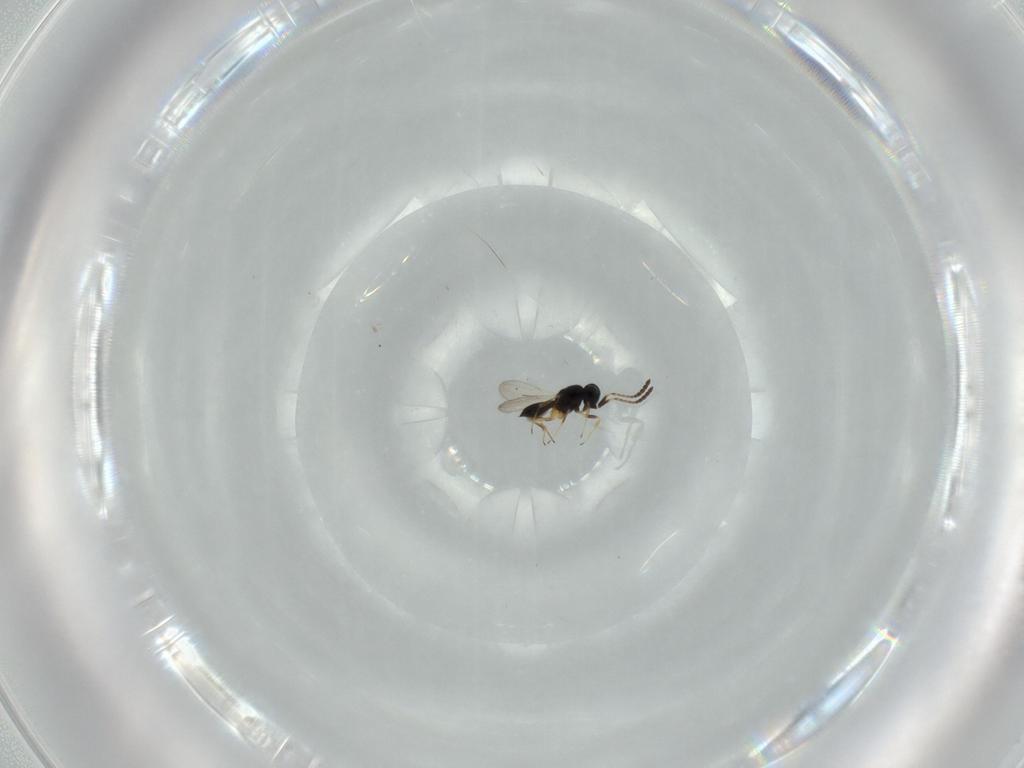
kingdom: Animalia
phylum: Arthropoda
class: Insecta
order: Hymenoptera
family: Scelionidae
